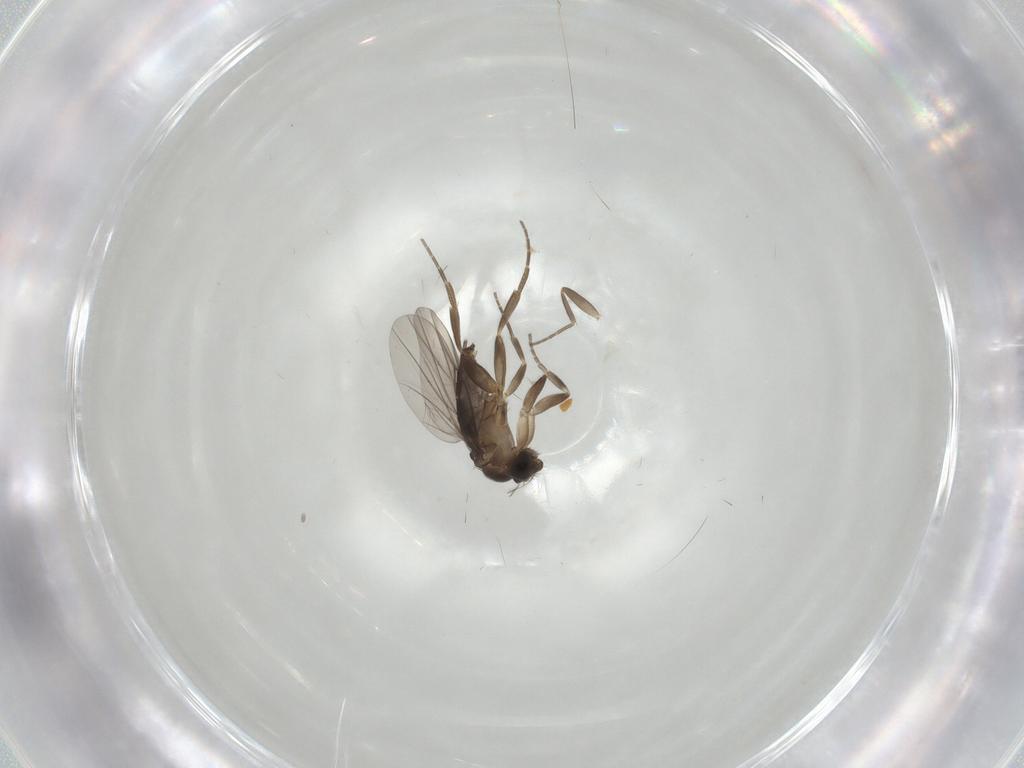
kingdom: Animalia
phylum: Arthropoda
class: Insecta
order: Diptera
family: Phoridae
